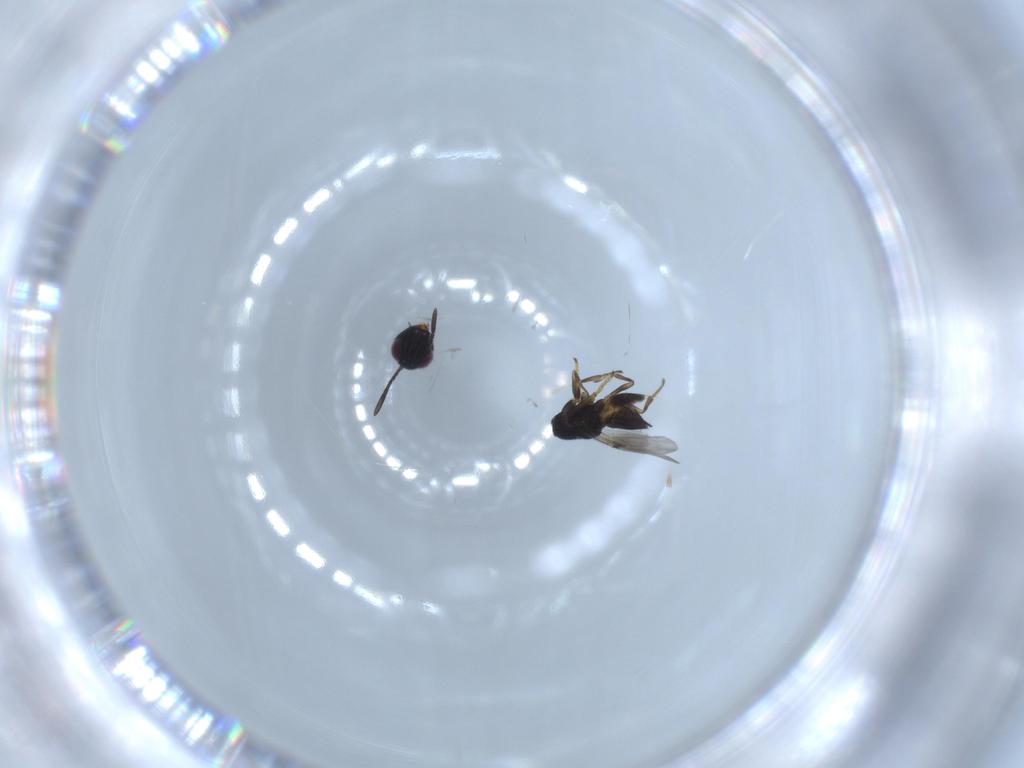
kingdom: Animalia
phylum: Arthropoda
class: Insecta
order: Hymenoptera
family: Encyrtidae
